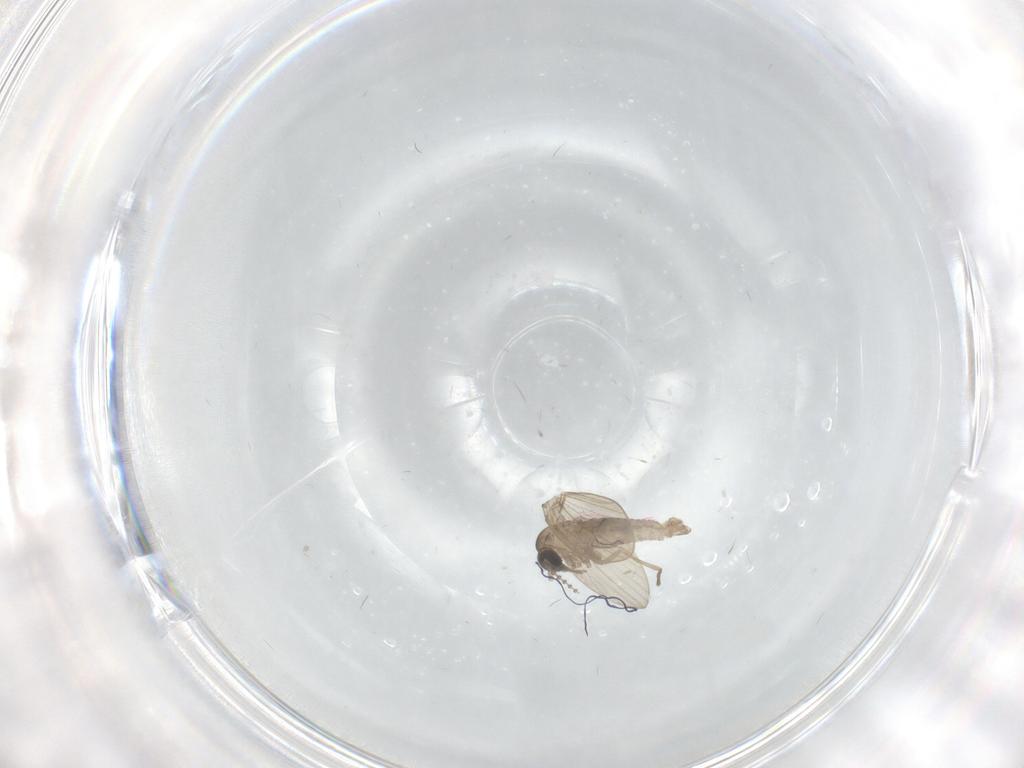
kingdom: Animalia
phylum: Arthropoda
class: Insecta
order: Diptera
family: Psychodidae
